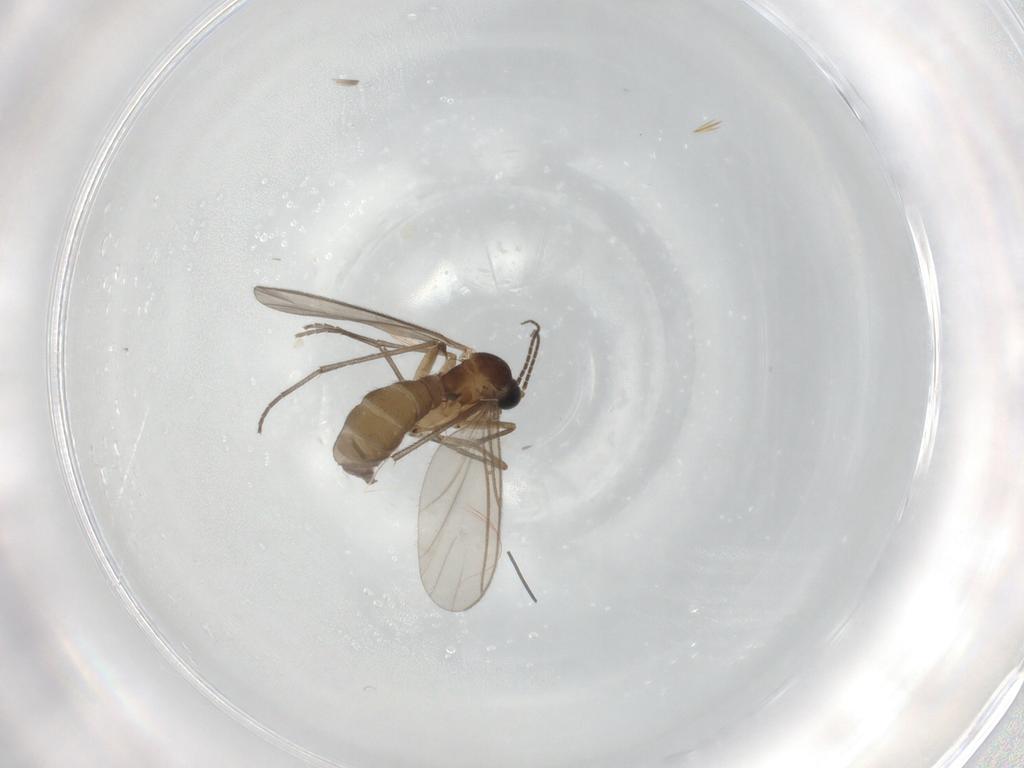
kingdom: Animalia
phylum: Arthropoda
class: Insecta
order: Diptera
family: Sciaridae
